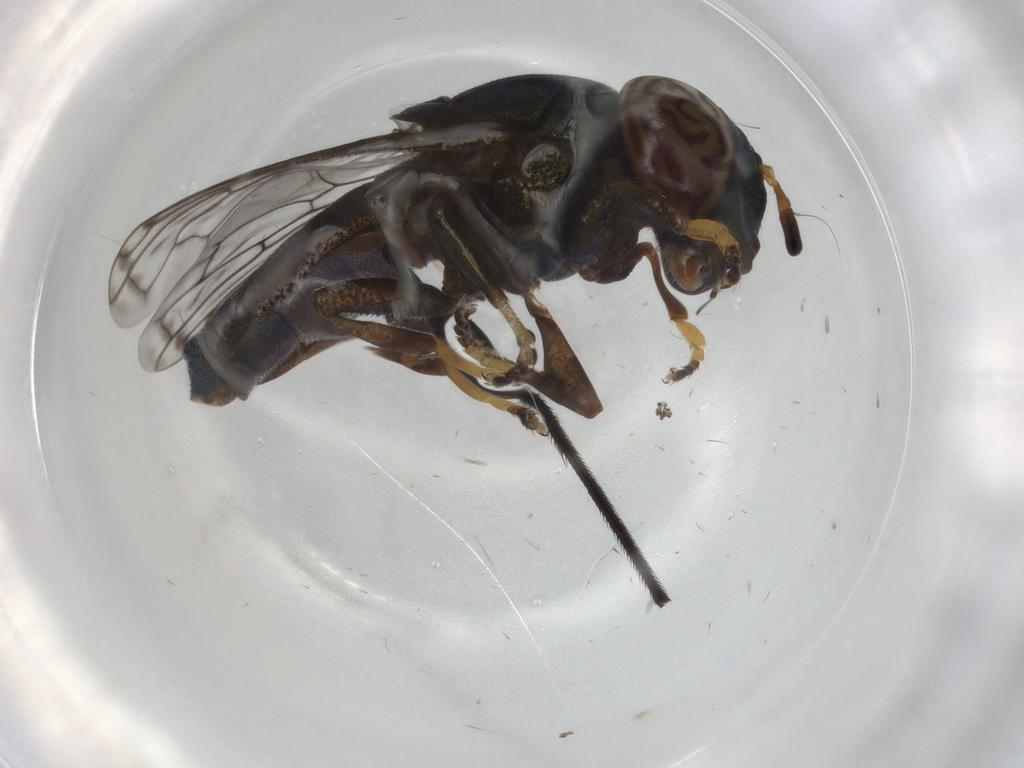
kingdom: Animalia
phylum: Arthropoda
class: Insecta
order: Diptera
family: Syrphidae
